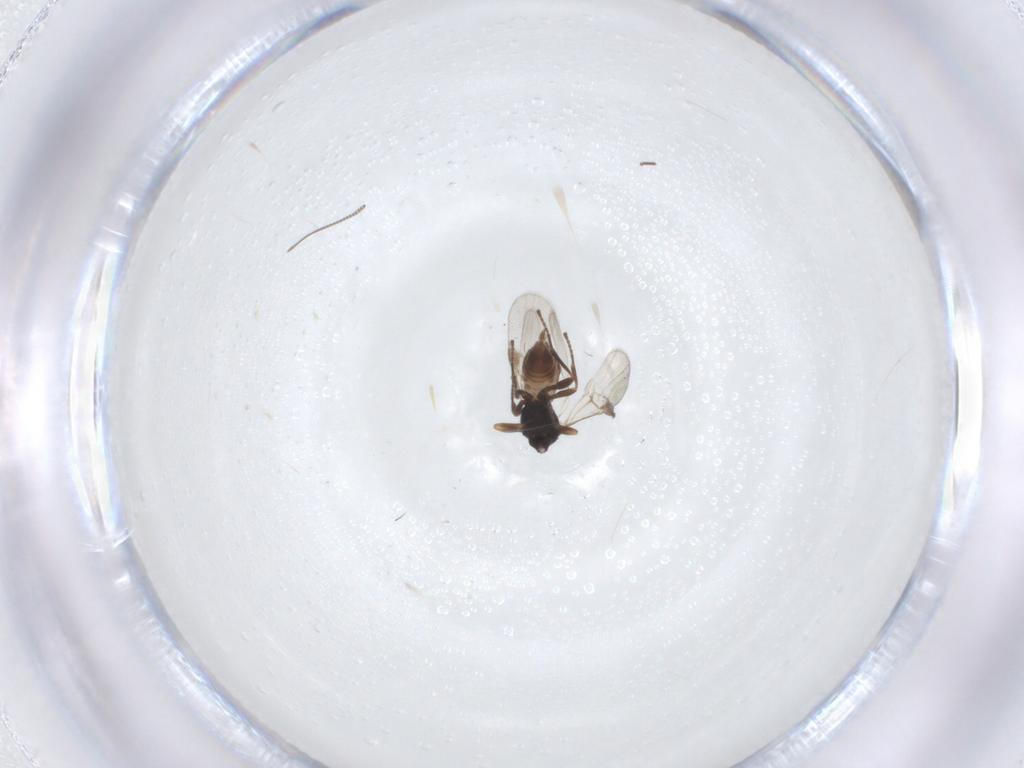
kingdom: Animalia
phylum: Arthropoda
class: Insecta
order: Hymenoptera
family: Braconidae
